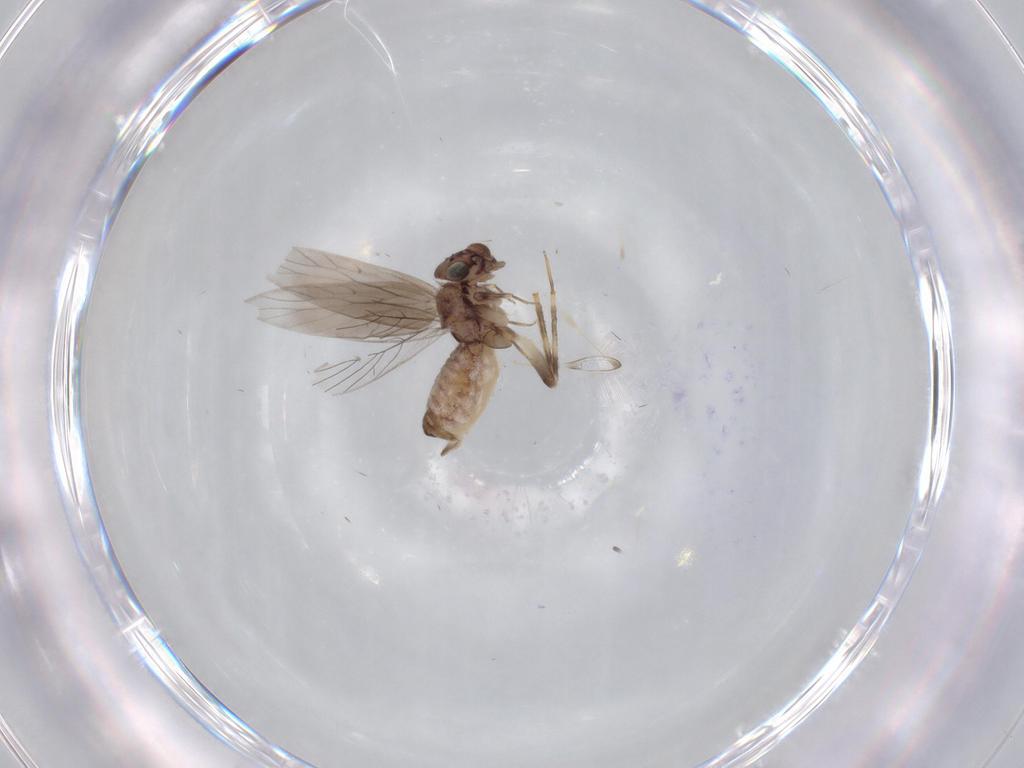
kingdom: Animalia
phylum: Arthropoda
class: Insecta
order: Psocodea
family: Lepidopsocidae
